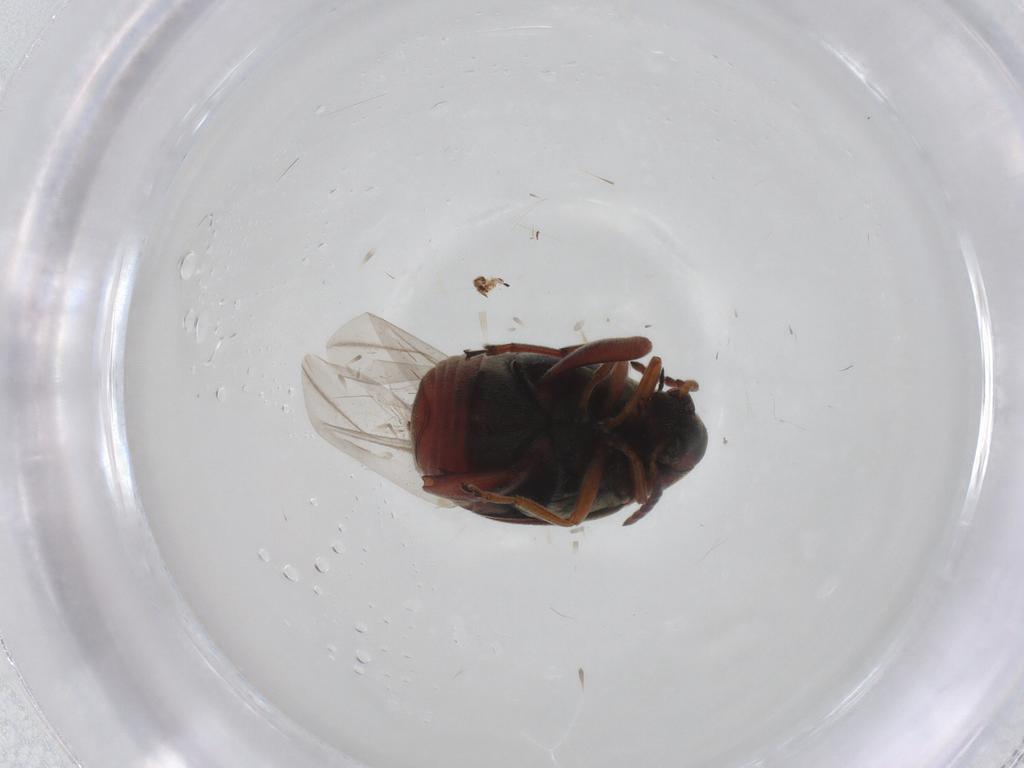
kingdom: Animalia
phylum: Arthropoda
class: Insecta
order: Coleoptera
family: Chrysomelidae
